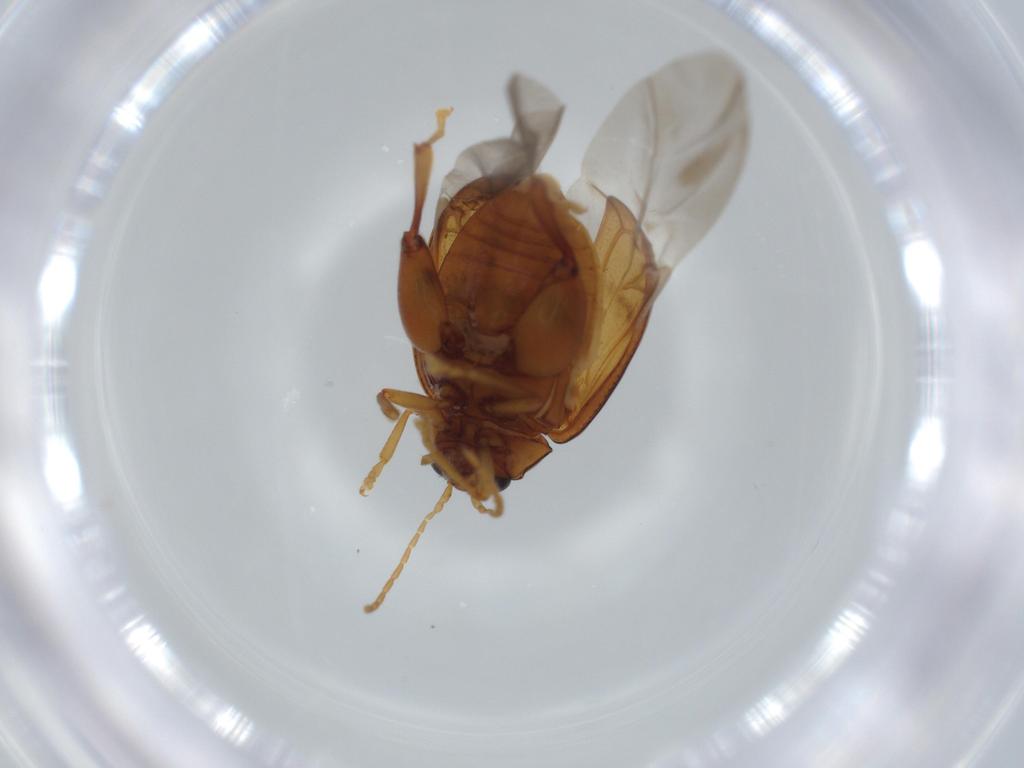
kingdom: Animalia
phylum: Arthropoda
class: Insecta
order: Coleoptera
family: Chrysomelidae
